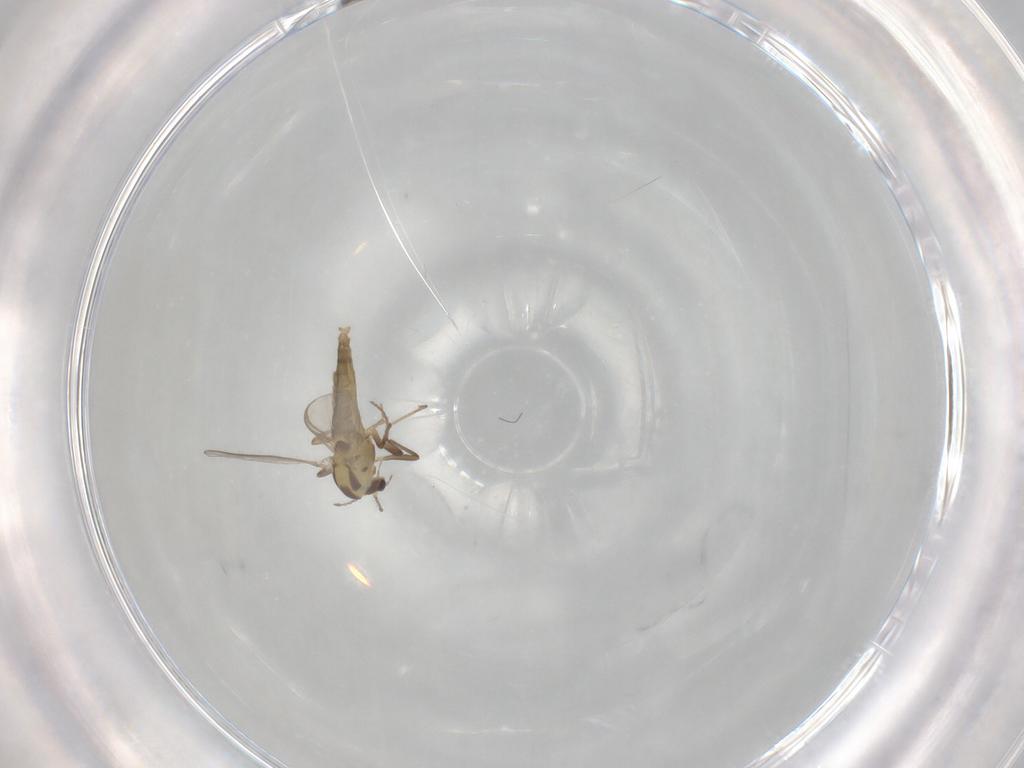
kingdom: Animalia
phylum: Arthropoda
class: Insecta
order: Diptera
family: Chironomidae
